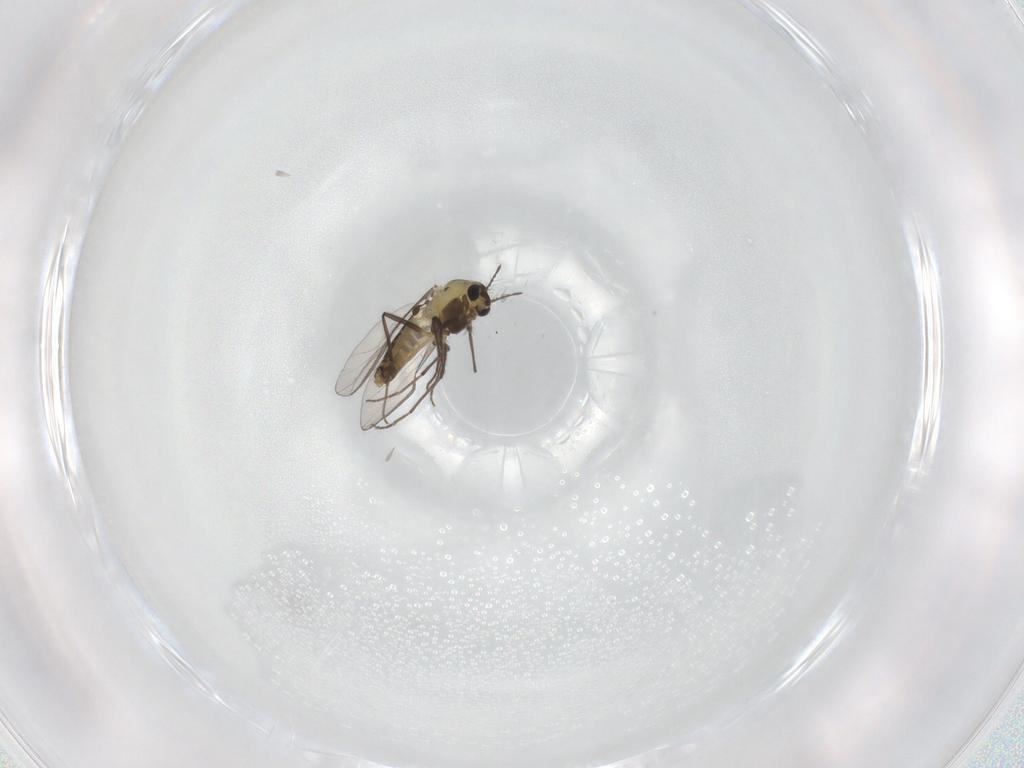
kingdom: Animalia
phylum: Arthropoda
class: Insecta
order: Diptera
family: Chironomidae
